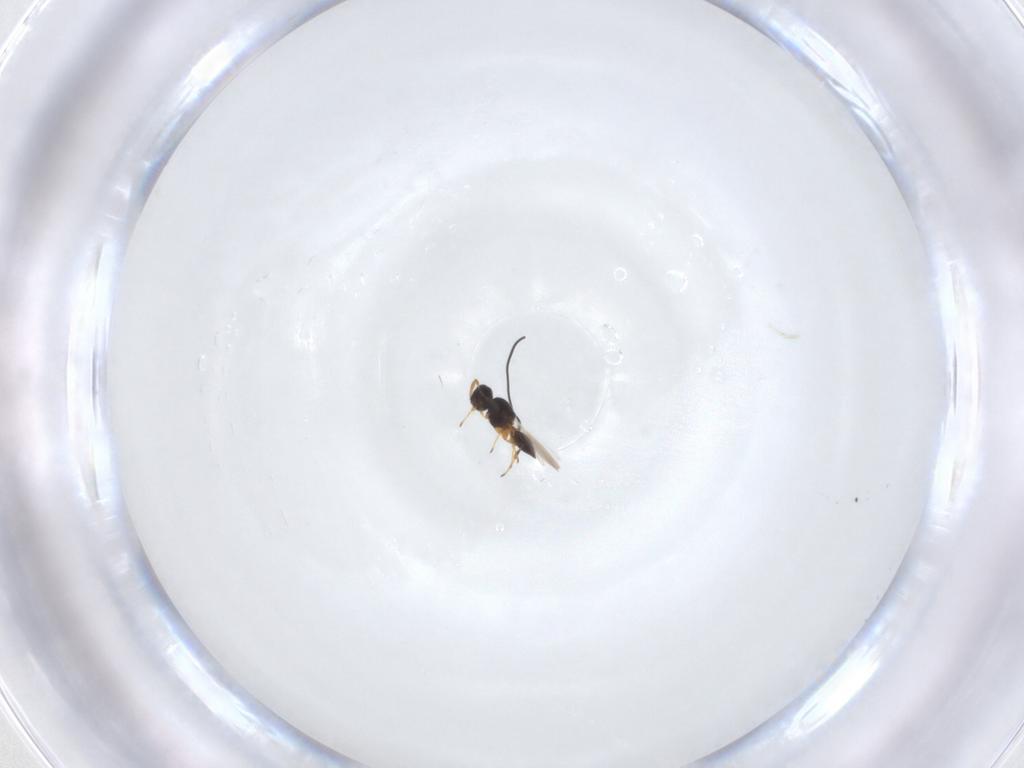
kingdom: Animalia
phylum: Arthropoda
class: Insecta
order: Hymenoptera
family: Platygastridae
